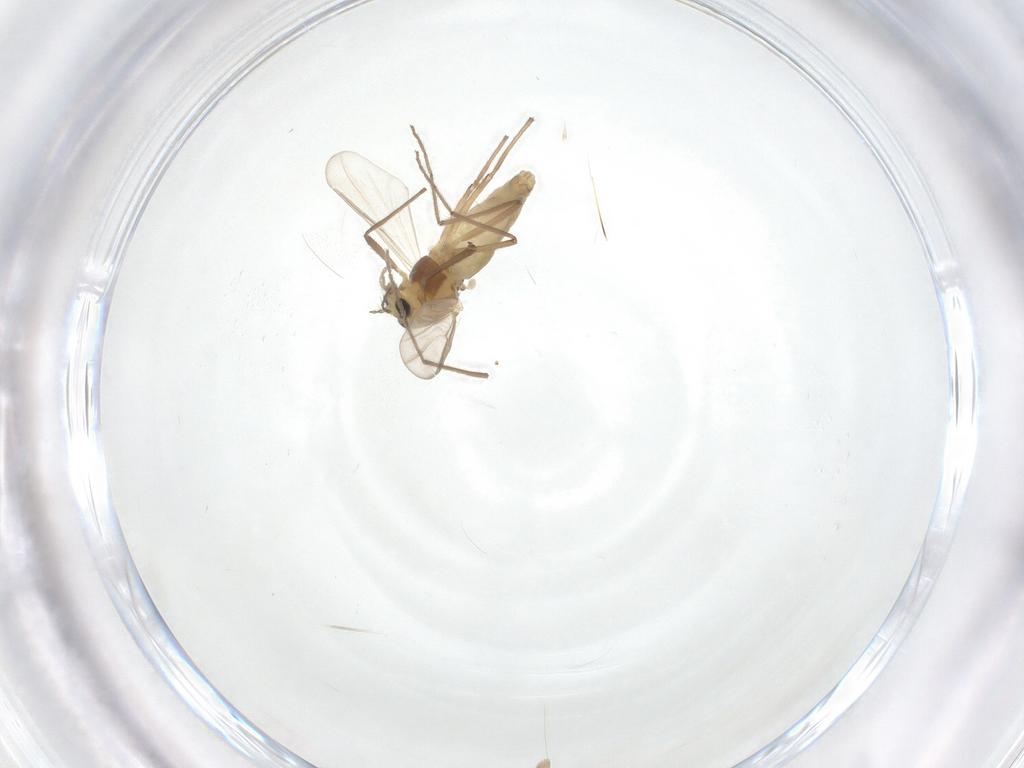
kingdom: Animalia
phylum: Arthropoda
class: Insecta
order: Diptera
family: Chironomidae
